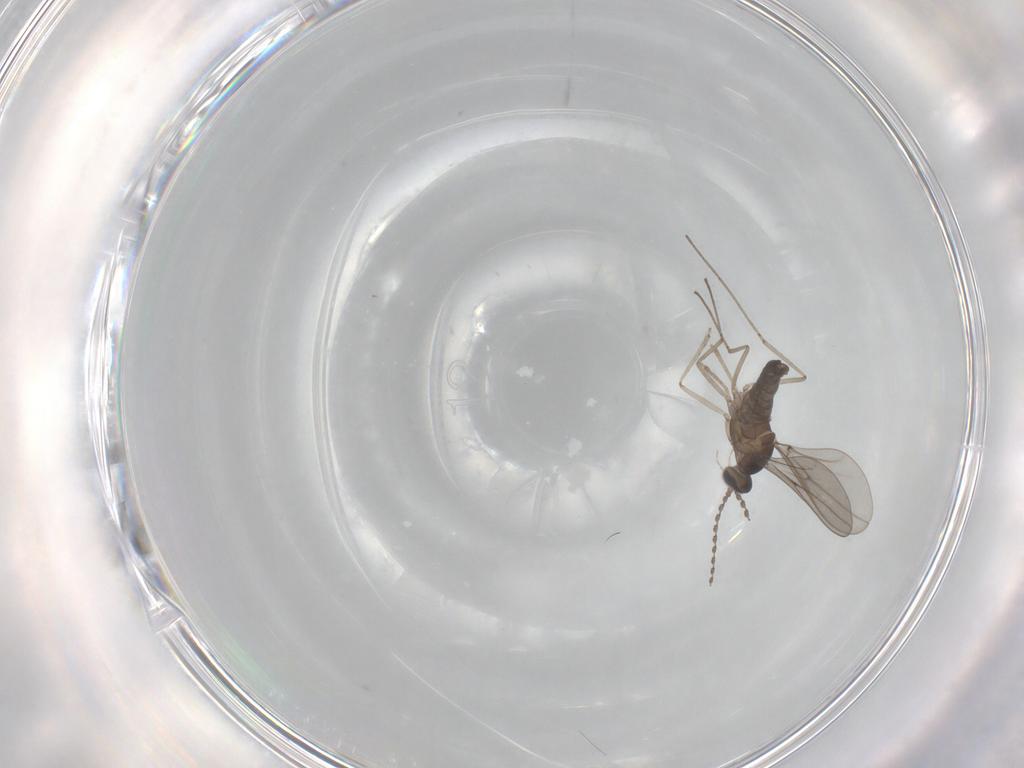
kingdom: Animalia
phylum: Arthropoda
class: Insecta
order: Diptera
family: Cecidomyiidae
